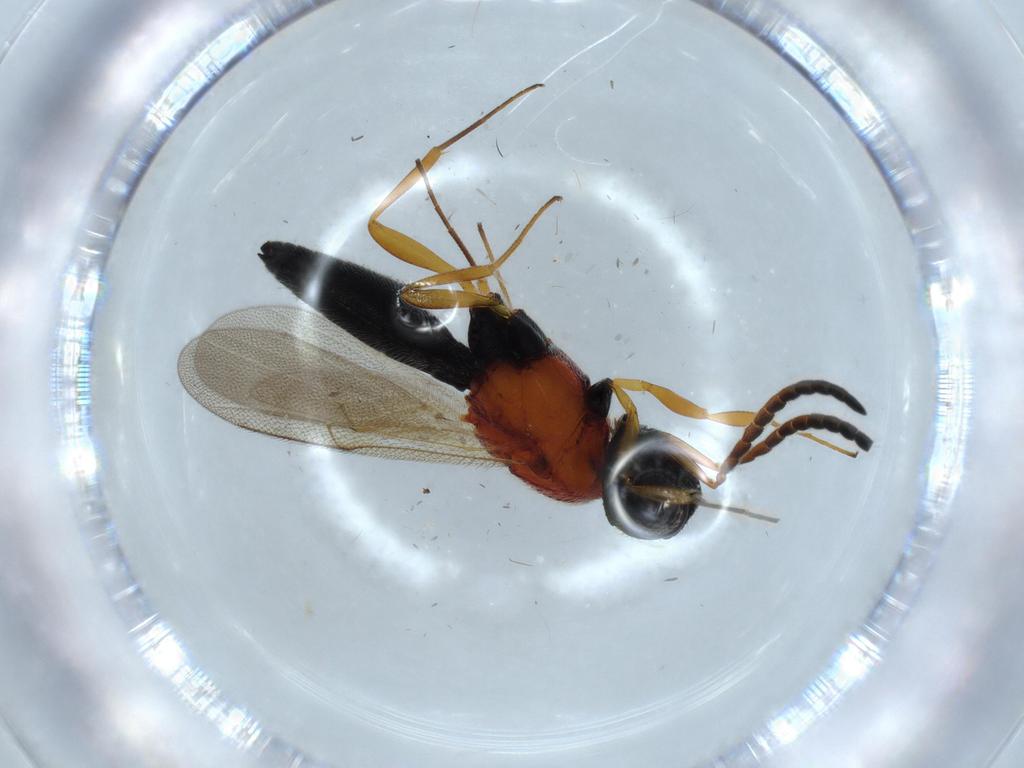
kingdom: Animalia
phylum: Arthropoda
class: Insecta
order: Hymenoptera
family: Scelionidae
